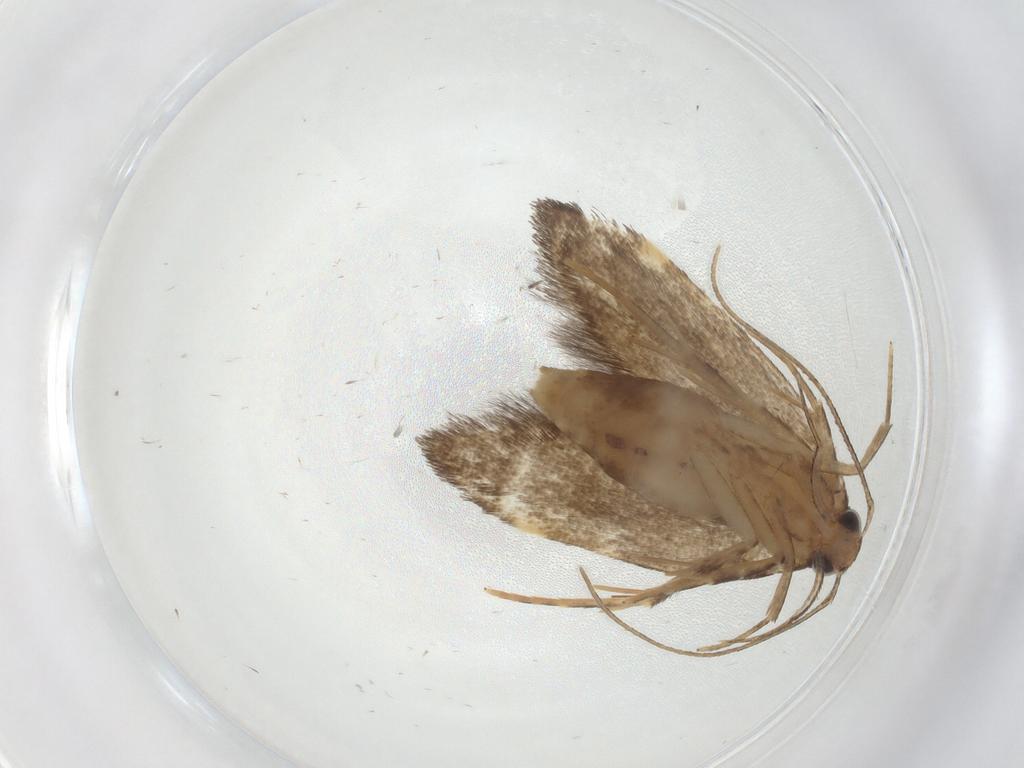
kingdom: Animalia
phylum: Arthropoda
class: Insecta
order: Lepidoptera
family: Cosmopterigidae
